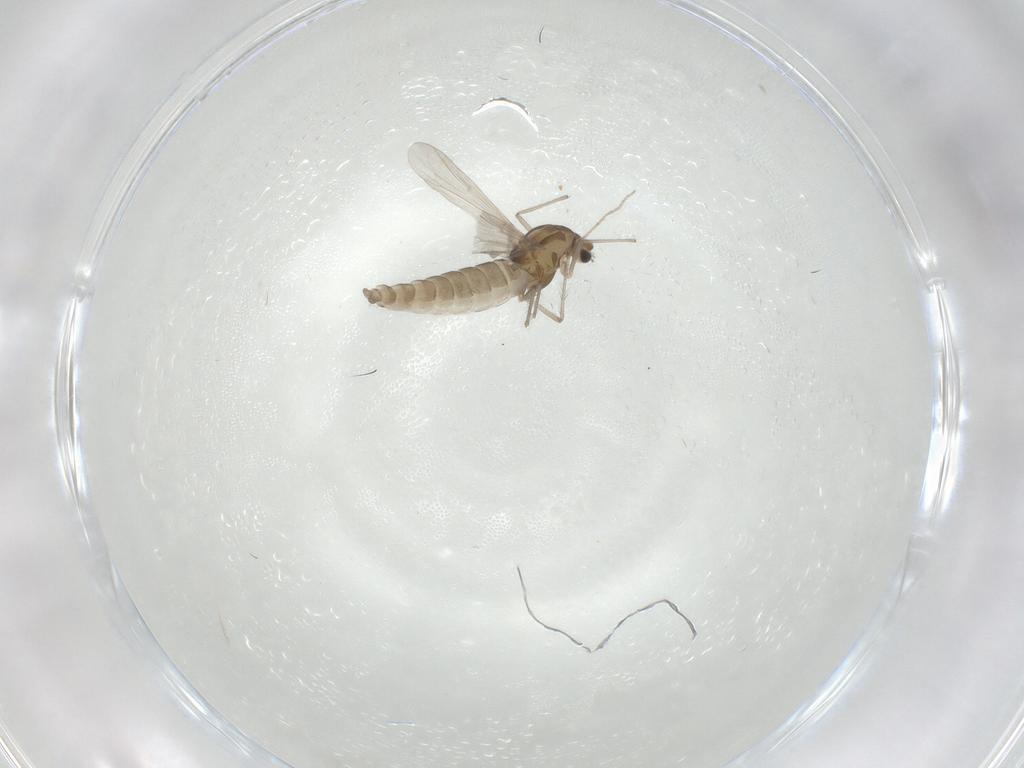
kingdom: Animalia
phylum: Arthropoda
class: Insecta
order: Diptera
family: Chironomidae
